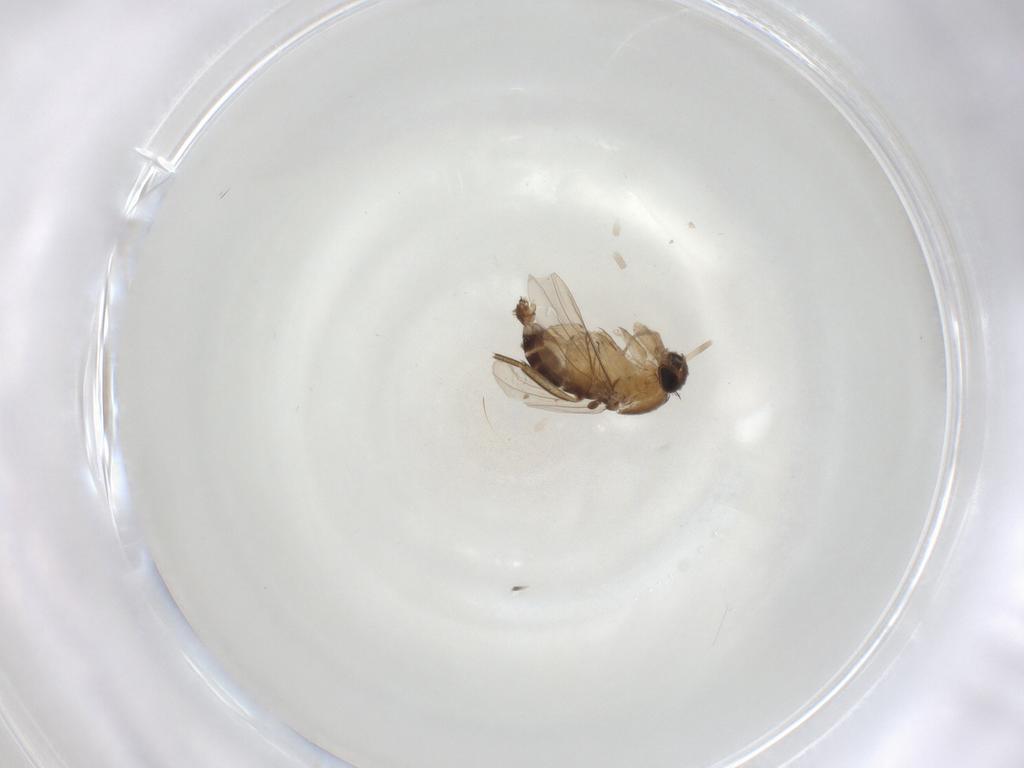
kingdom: Animalia
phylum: Arthropoda
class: Insecta
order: Diptera
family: Phoridae
